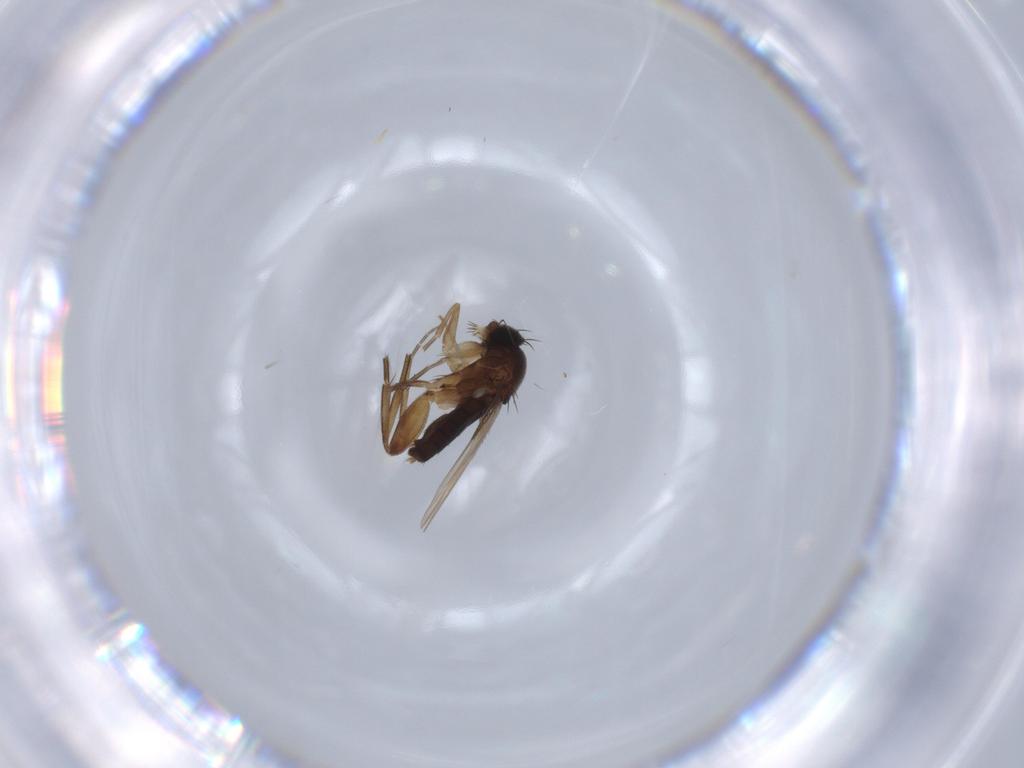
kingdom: Animalia
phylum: Arthropoda
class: Insecta
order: Diptera
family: Phoridae
